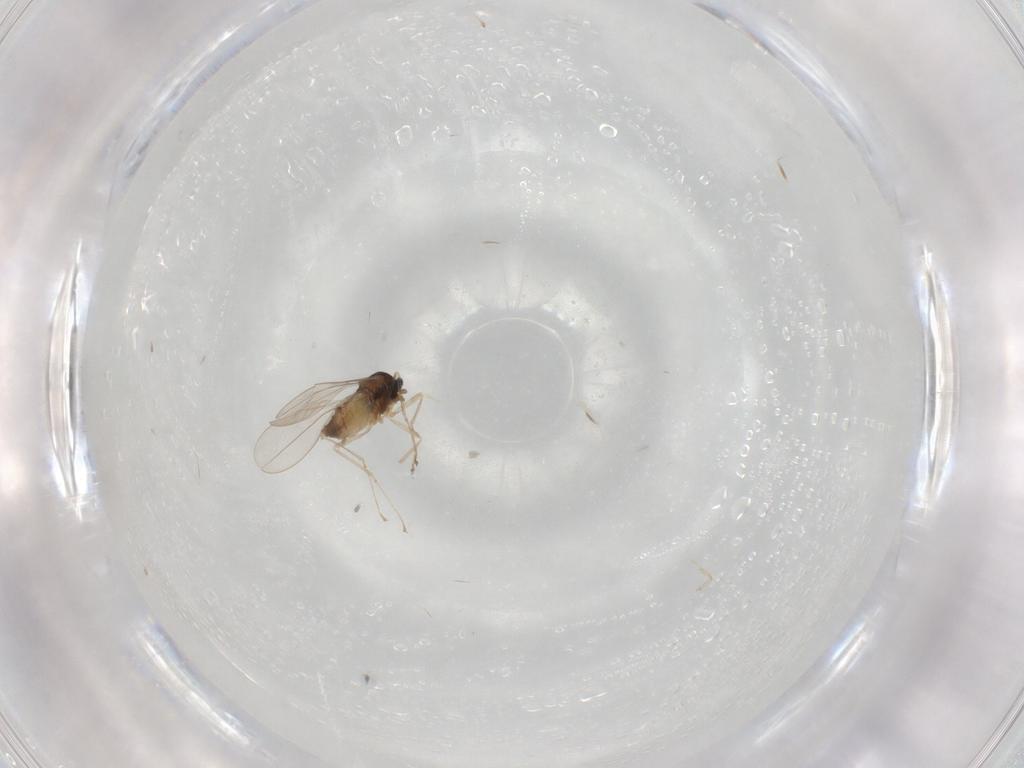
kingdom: Animalia
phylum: Arthropoda
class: Insecta
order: Diptera
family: Cecidomyiidae
